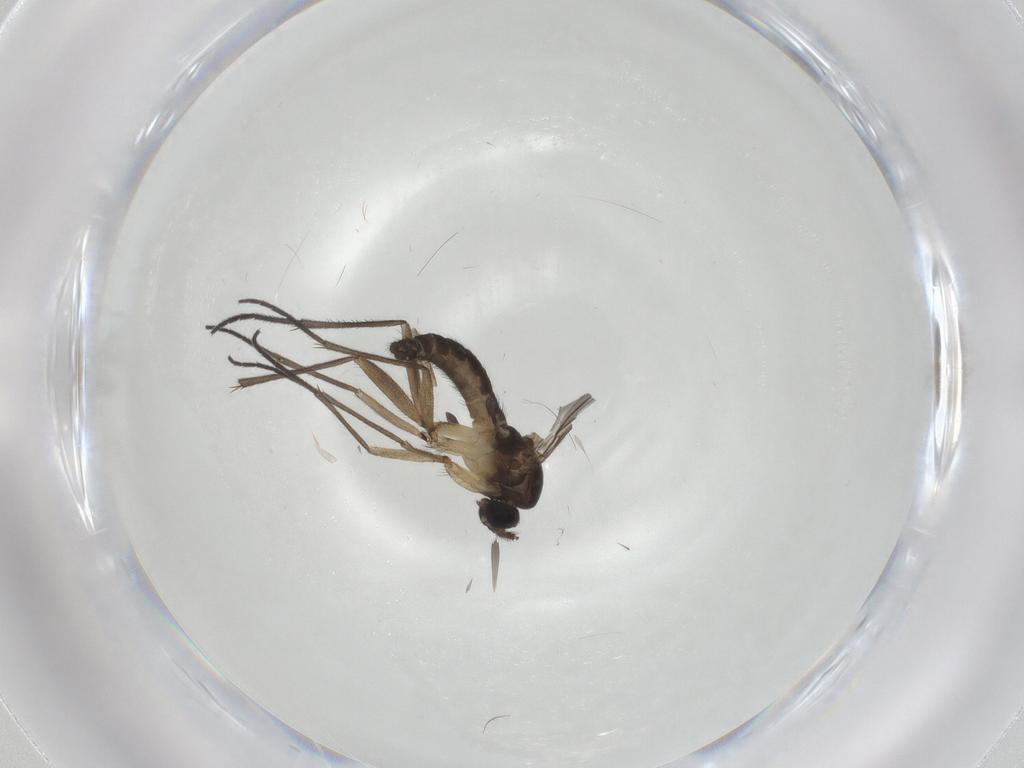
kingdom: Animalia
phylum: Arthropoda
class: Insecta
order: Diptera
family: Sciaridae
